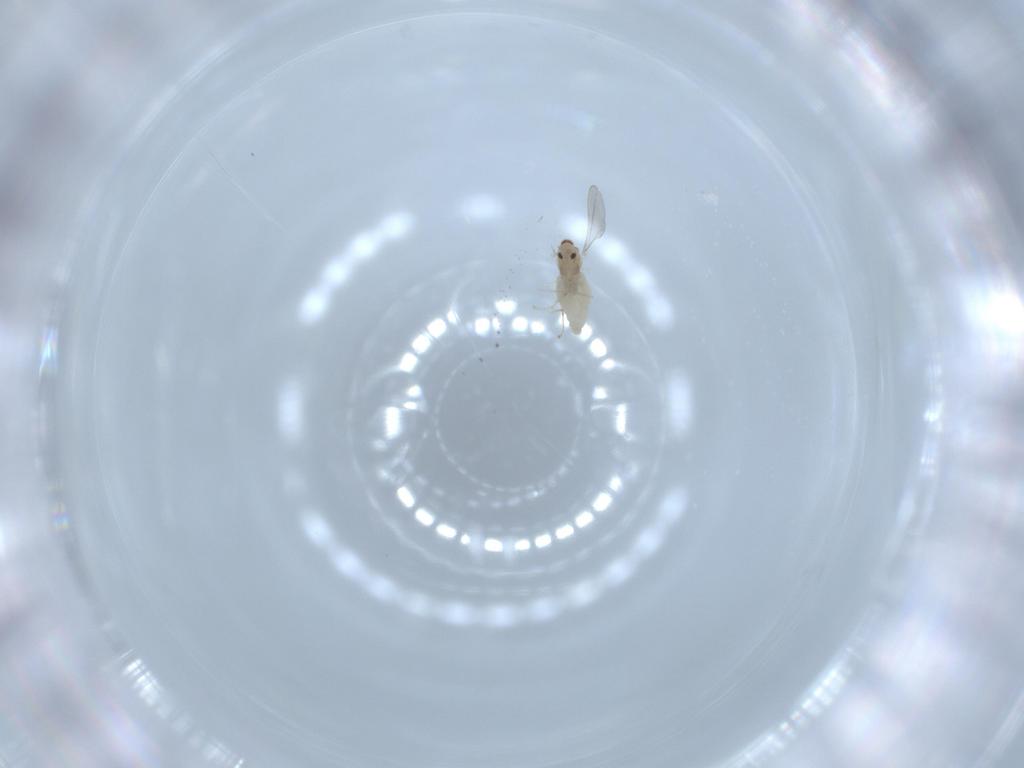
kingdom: Animalia
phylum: Arthropoda
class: Insecta
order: Diptera
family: Cecidomyiidae
